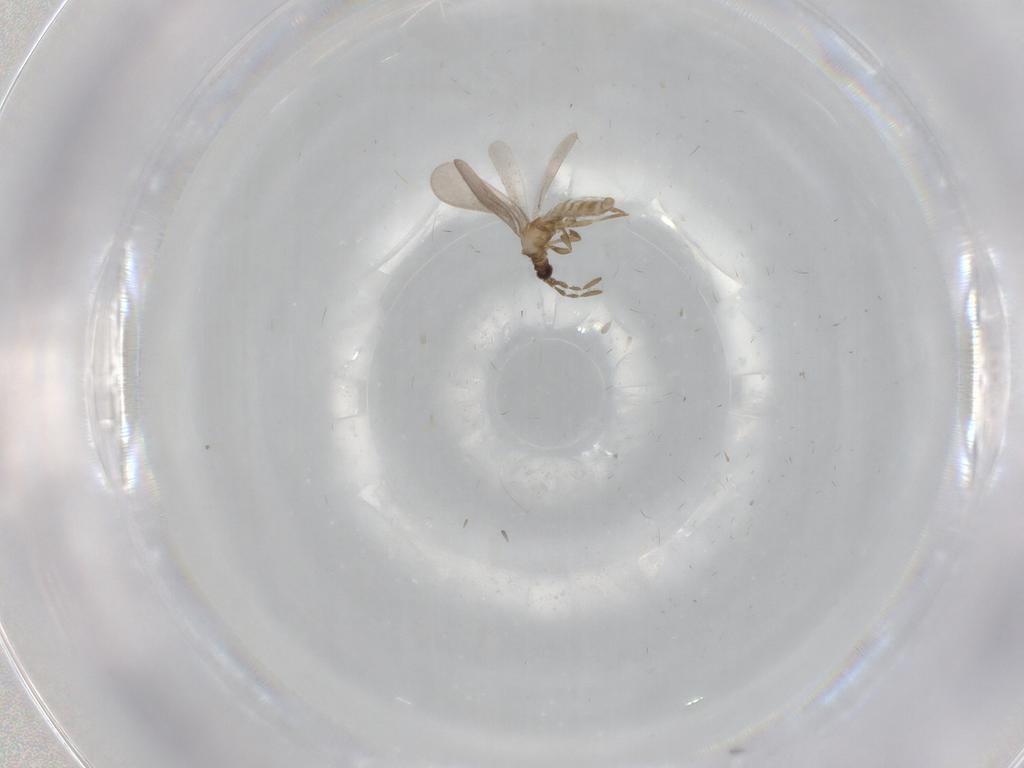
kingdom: Animalia
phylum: Arthropoda
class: Insecta
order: Hemiptera
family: Enicocephalidae
